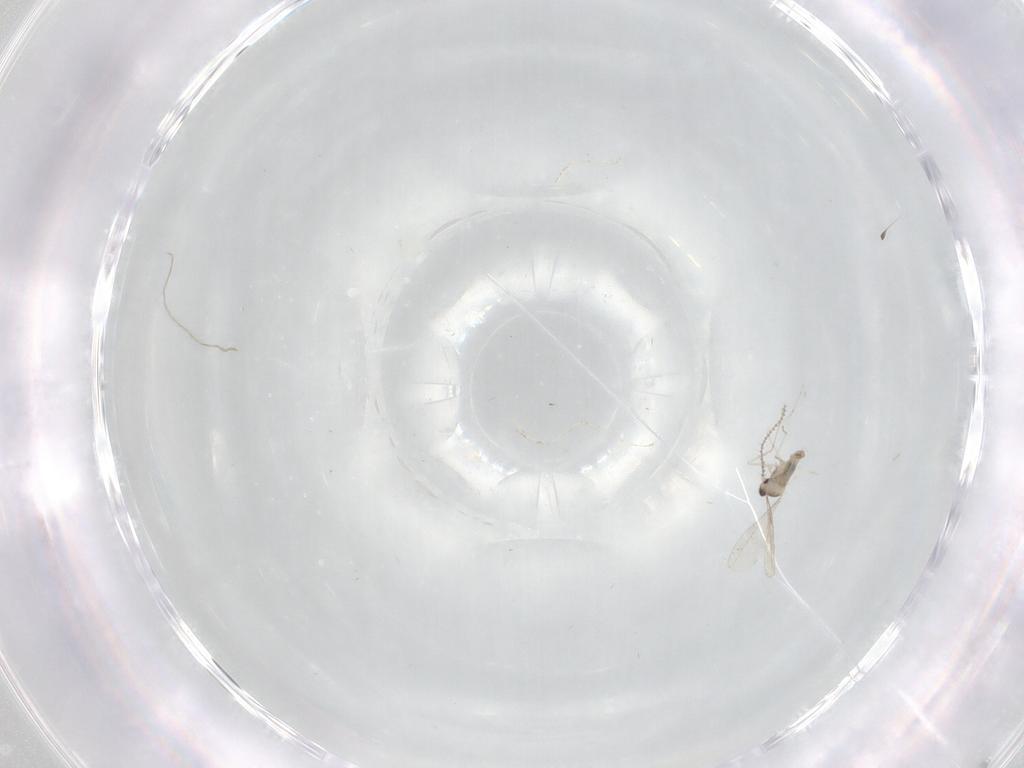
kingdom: Animalia
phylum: Arthropoda
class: Insecta
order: Diptera
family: Cecidomyiidae
